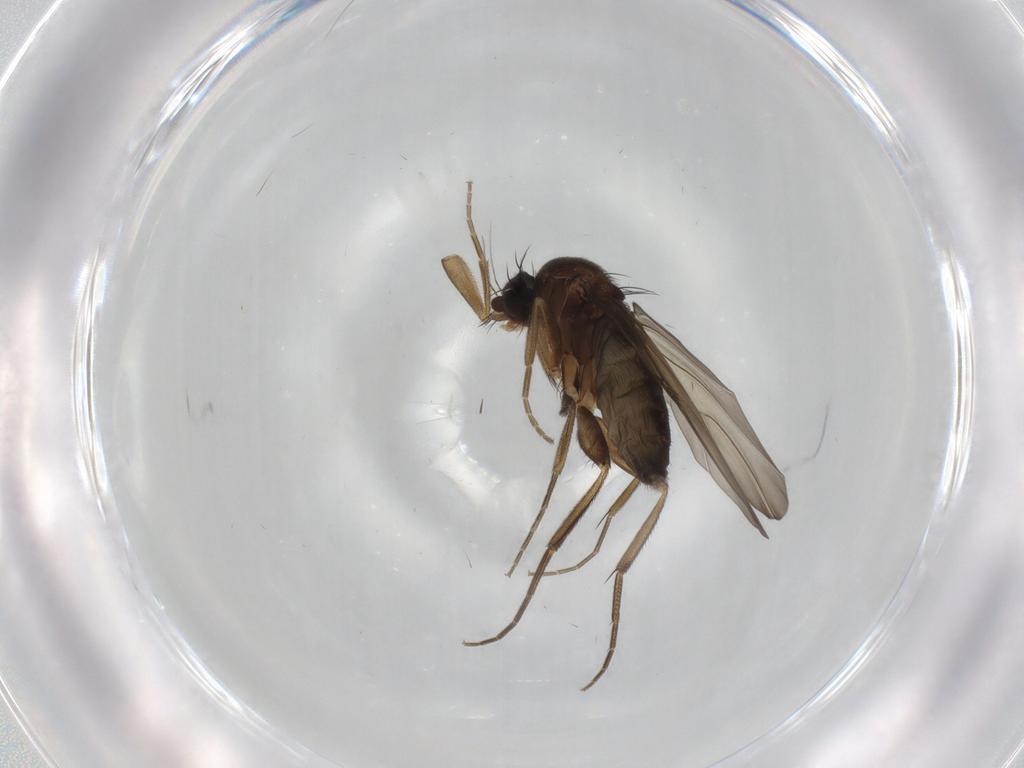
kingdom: Animalia
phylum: Arthropoda
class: Insecta
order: Diptera
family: Phoridae
